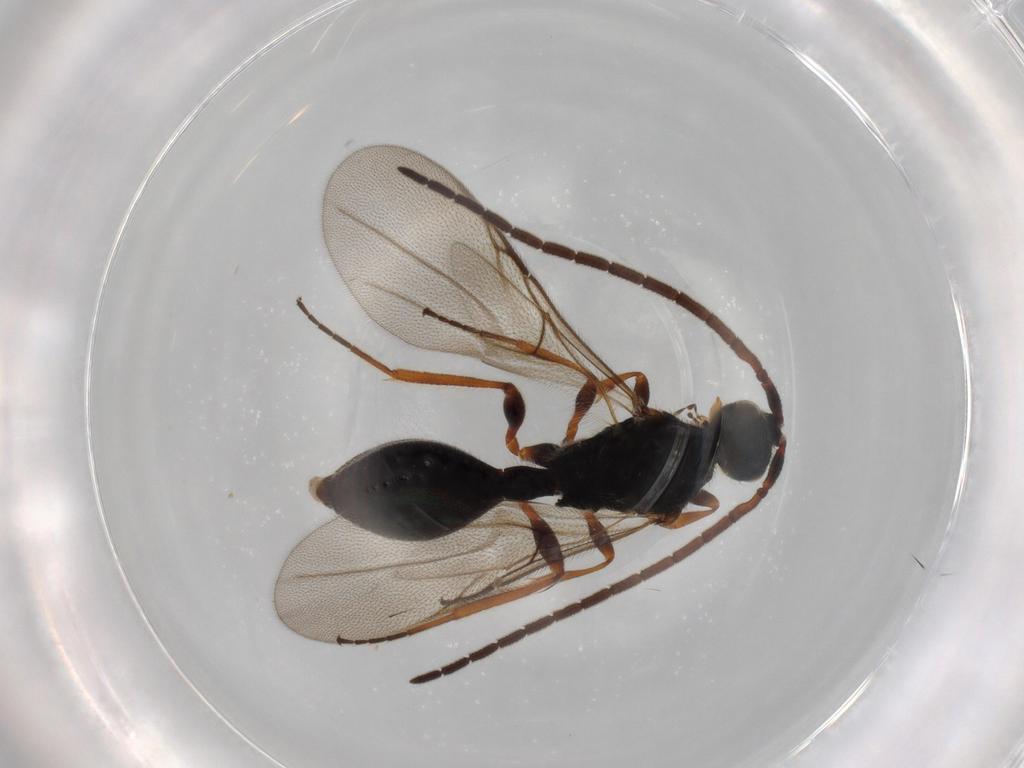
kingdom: Animalia
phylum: Arthropoda
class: Insecta
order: Hymenoptera
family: Diapriidae
